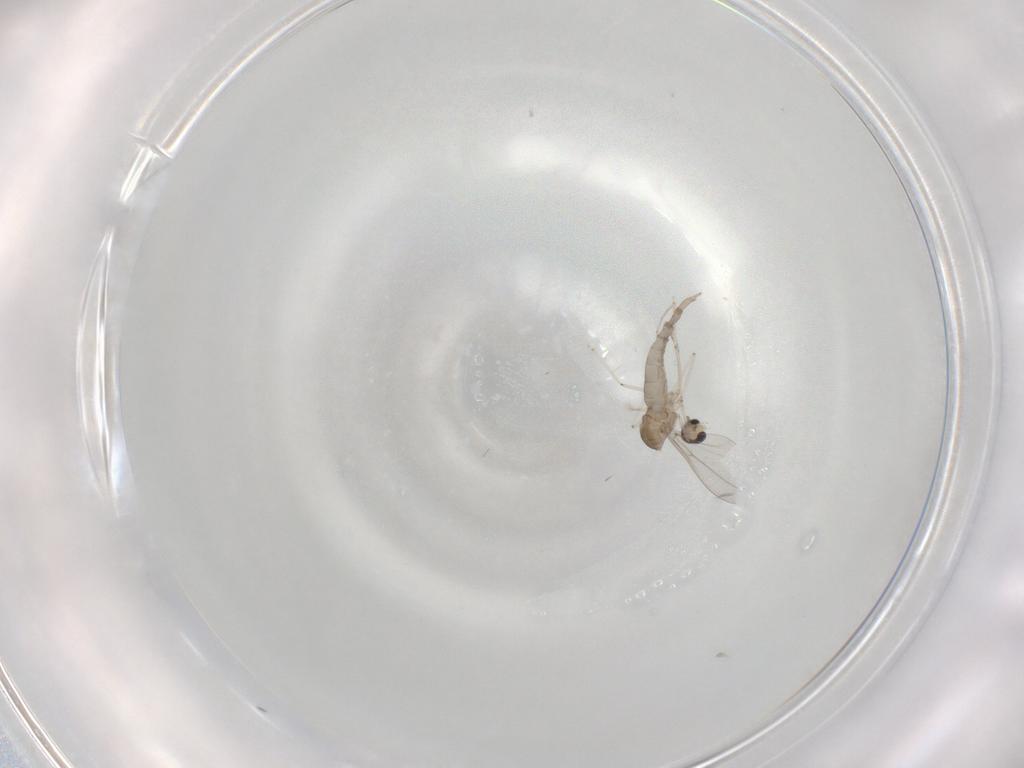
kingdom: Animalia
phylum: Arthropoda
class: Insecta
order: Diptera
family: Cecidomyiidae
